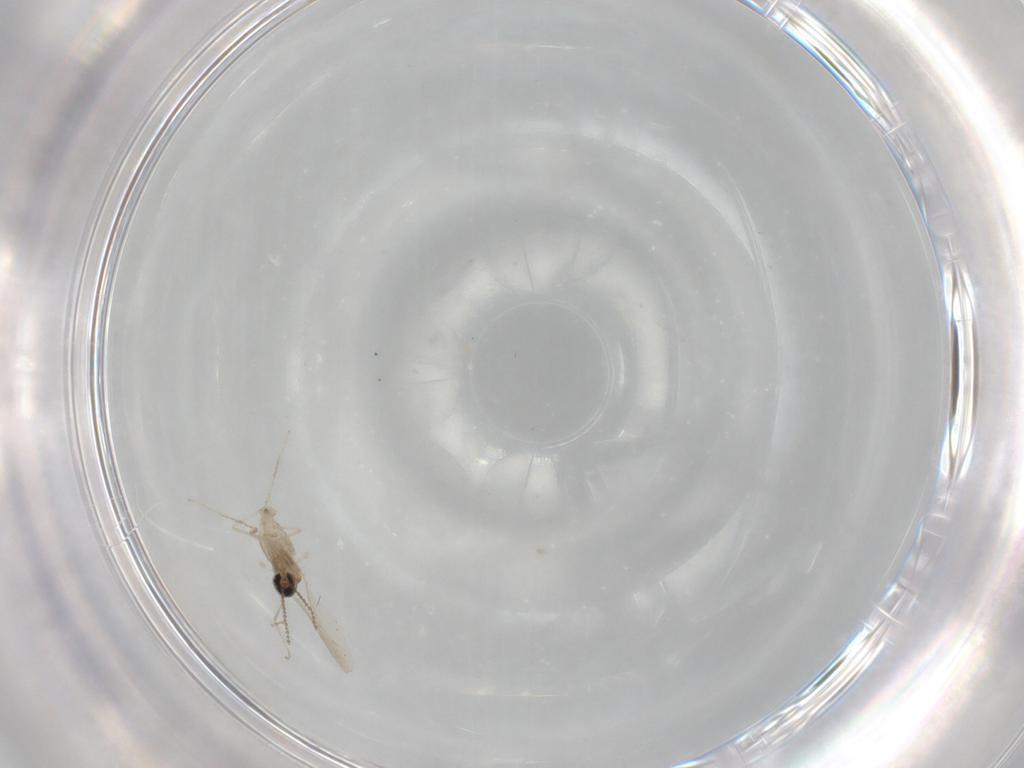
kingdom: Animalia
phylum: Arthropoda
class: Insecta
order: Diptera
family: Cecidomyiidae
